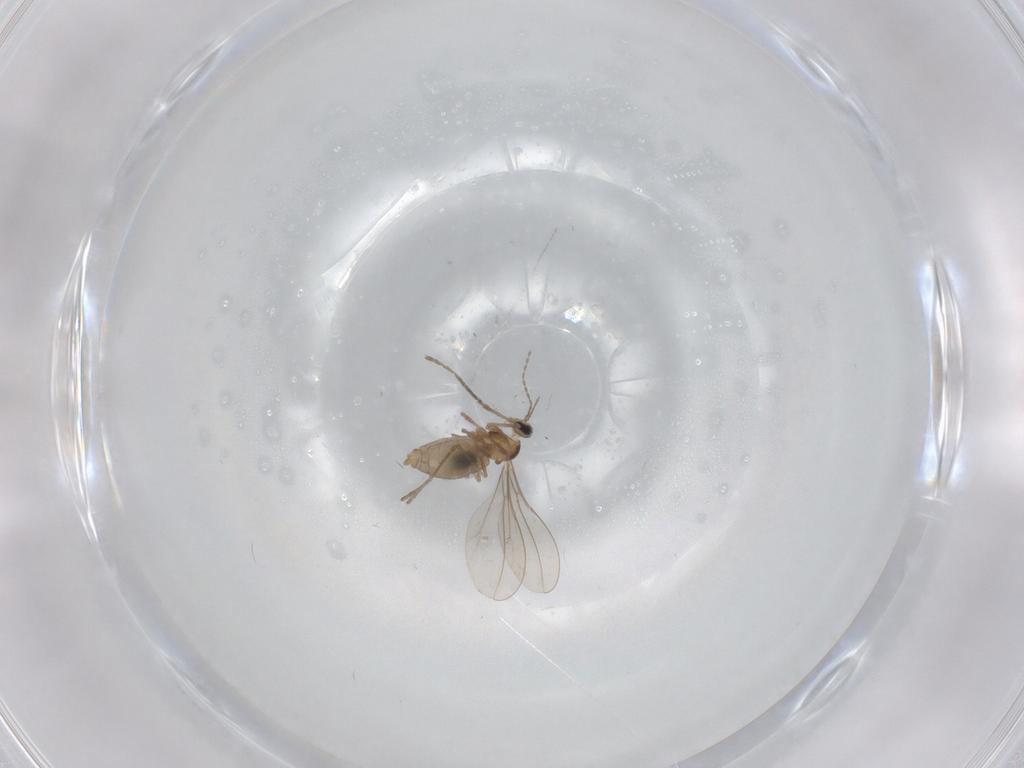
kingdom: Animalia
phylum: Arthropoda
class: Insecta
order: Diptera
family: Cecidomyiidae
